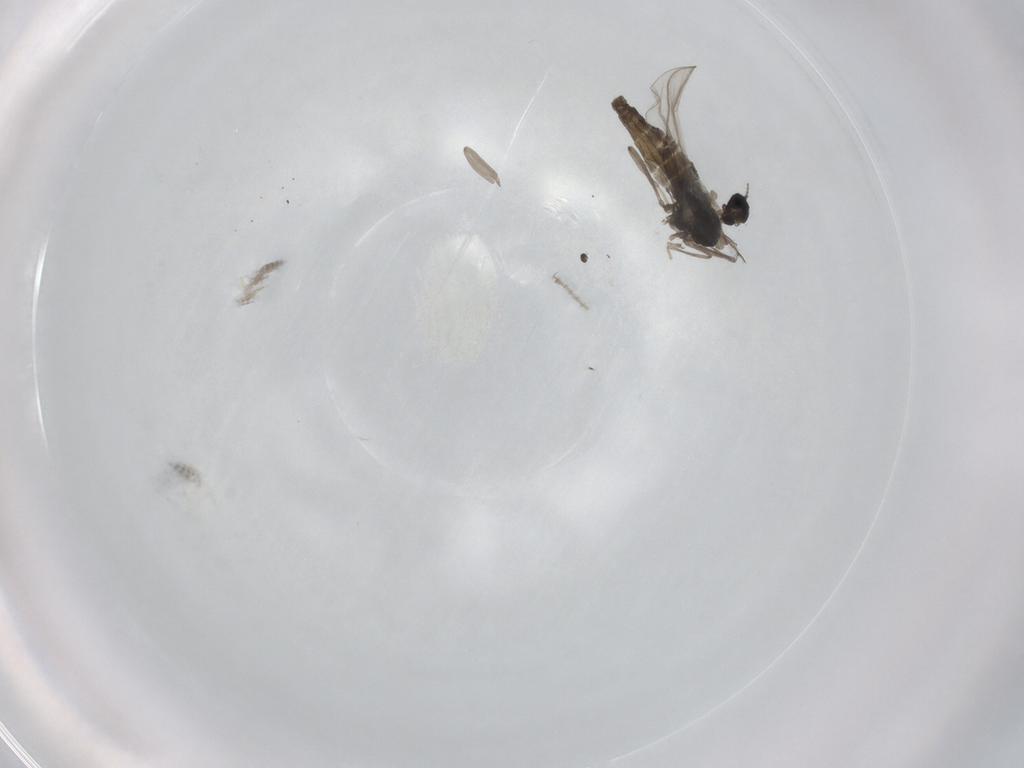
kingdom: Animalia
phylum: Arthropoda
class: Insecta
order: Diptera
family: Cecidomyiidae
